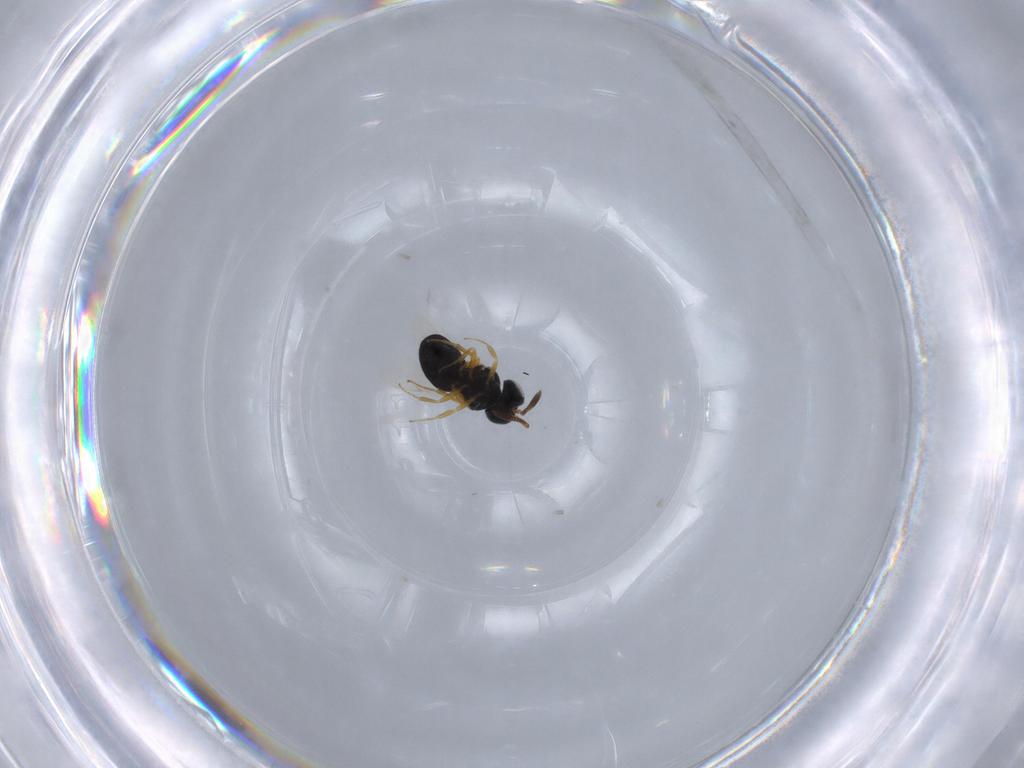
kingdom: Animalia
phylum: Arthropoda
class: Insecta
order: Hymenoptera
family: Scelionidae
